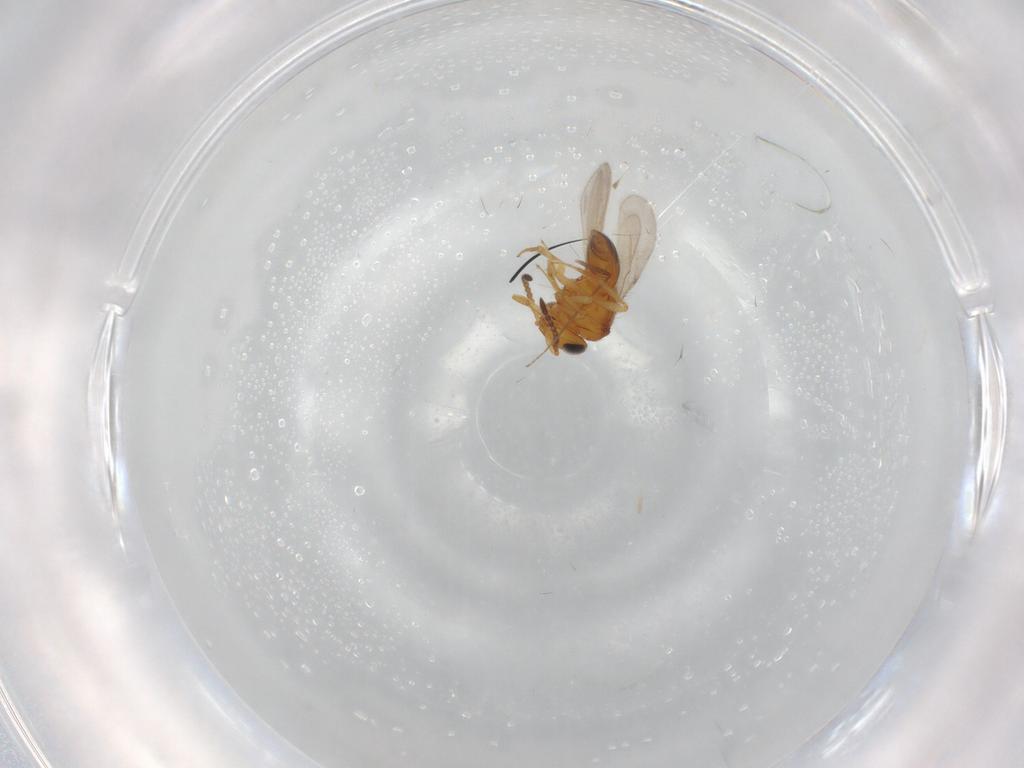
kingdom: Animalia
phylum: Arthropoda
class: Insecta
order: Hymenoptera
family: Scelionidae
